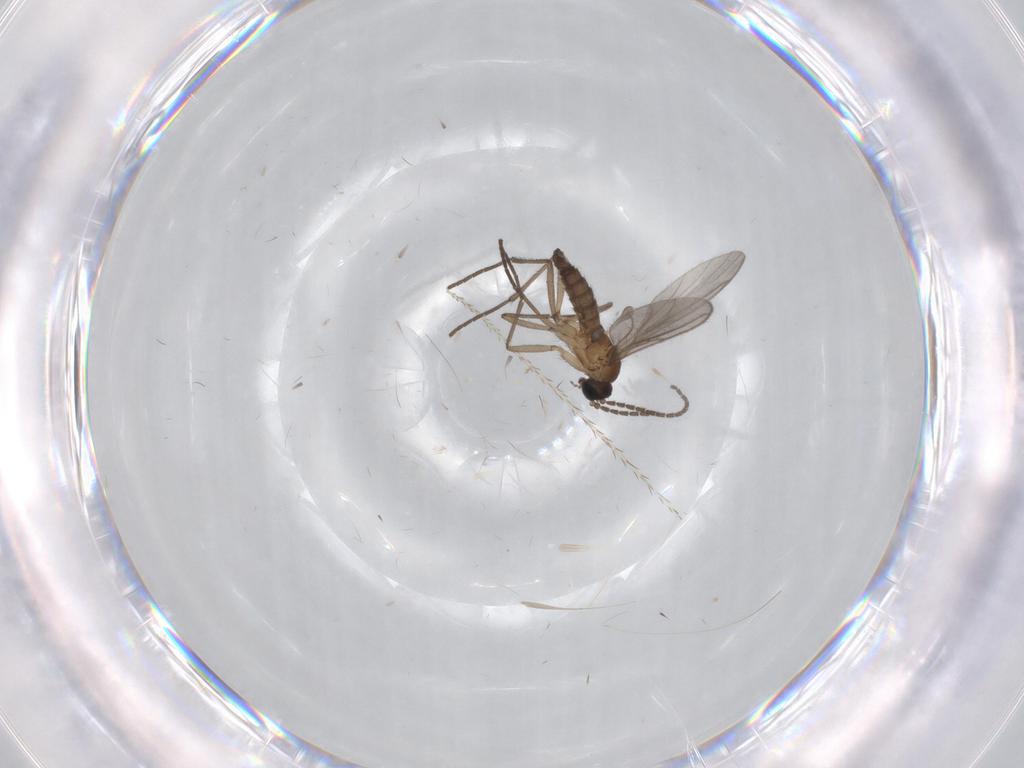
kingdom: Animalia
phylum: Arthropoda
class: Insecta
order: Diptera
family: Sciaridae
